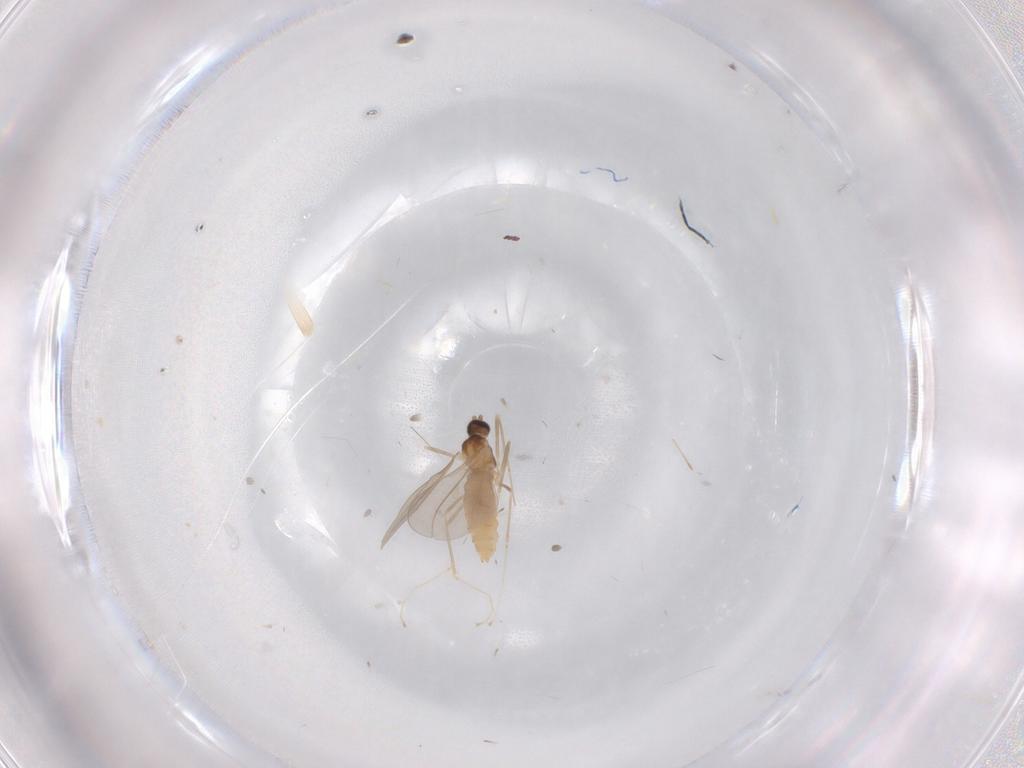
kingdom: Animalia
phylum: Arthropoda
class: Insecta
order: Diptera
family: Cecidomyiidae
